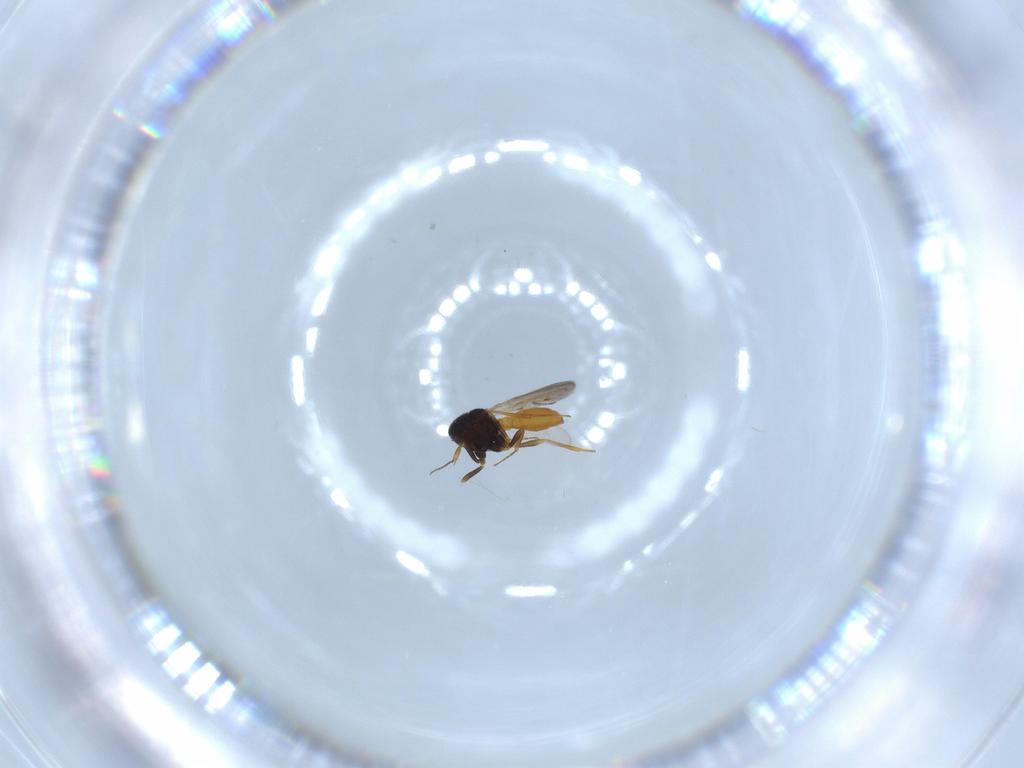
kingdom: Animalia
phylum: Arthropoda
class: Insecta
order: Hymenoptera
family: Scelionidae
